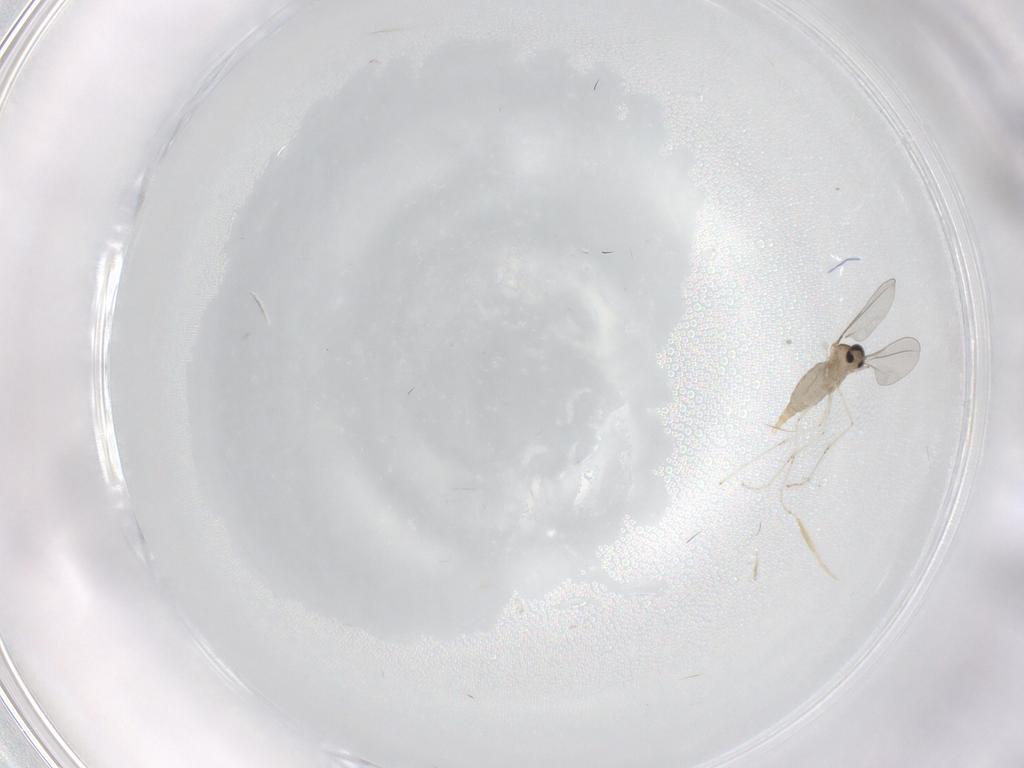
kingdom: Animalia
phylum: Arthropoda
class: Insecta
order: Diptera
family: Cecidomyiidae
